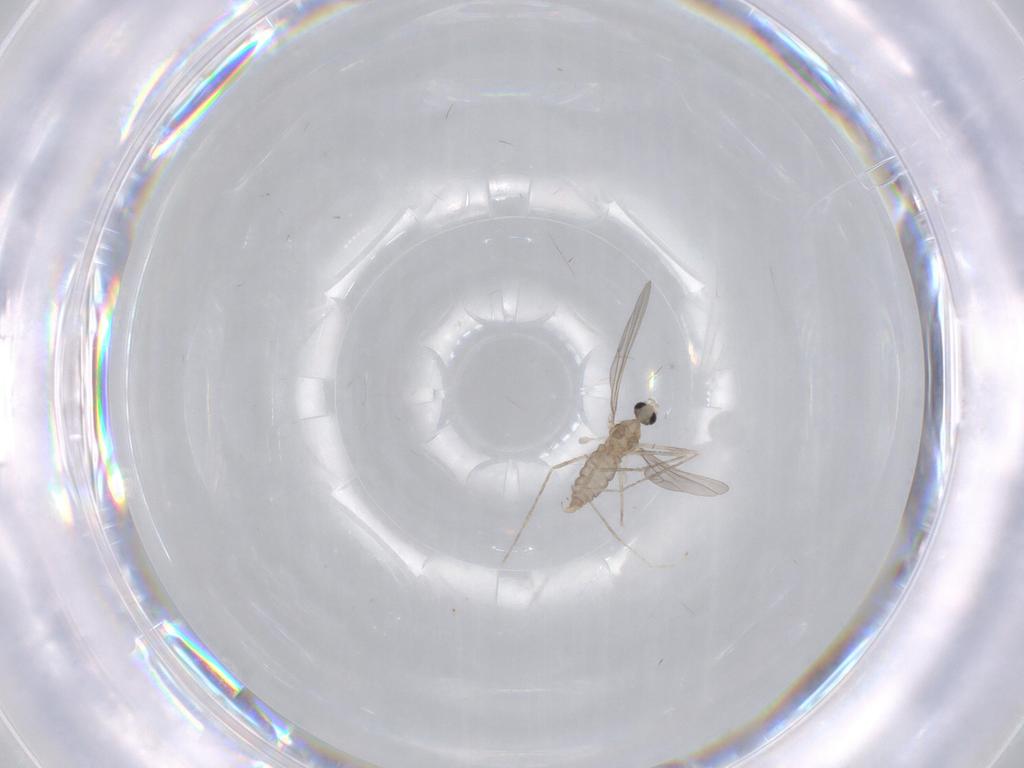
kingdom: Animalia
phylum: Arthropoda
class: Insecta
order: Diptera
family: Cecidomyiidae
